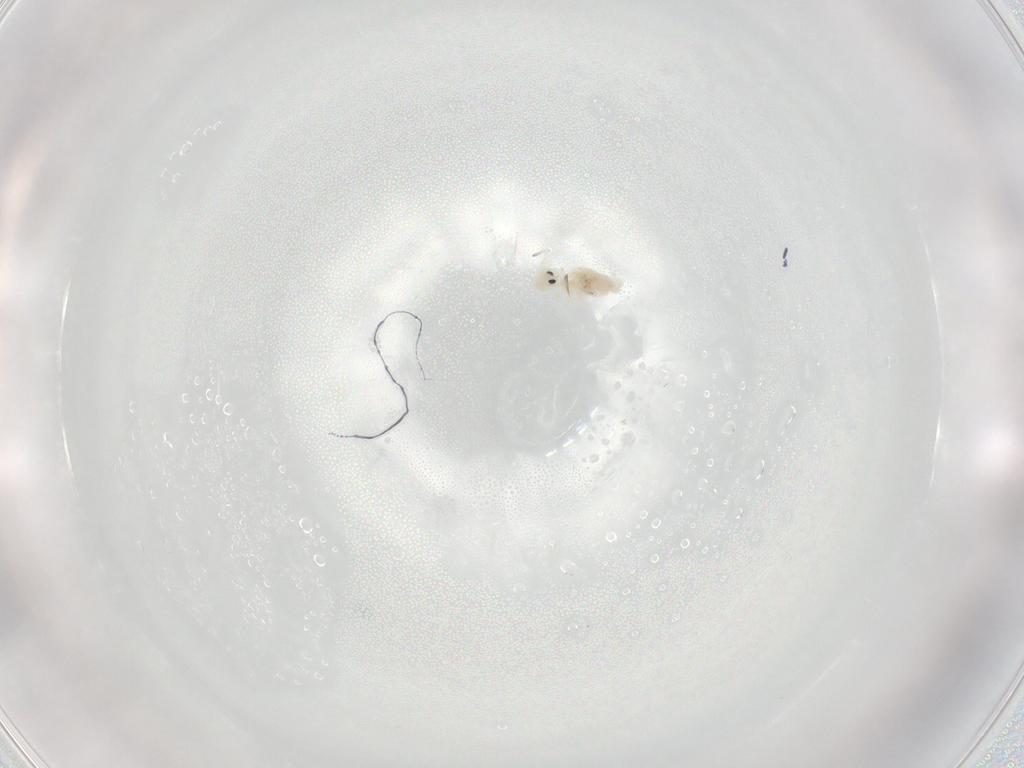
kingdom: Animalia
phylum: Arthropoda
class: Collembola
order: Symphypleona
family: Bourletiellidae
